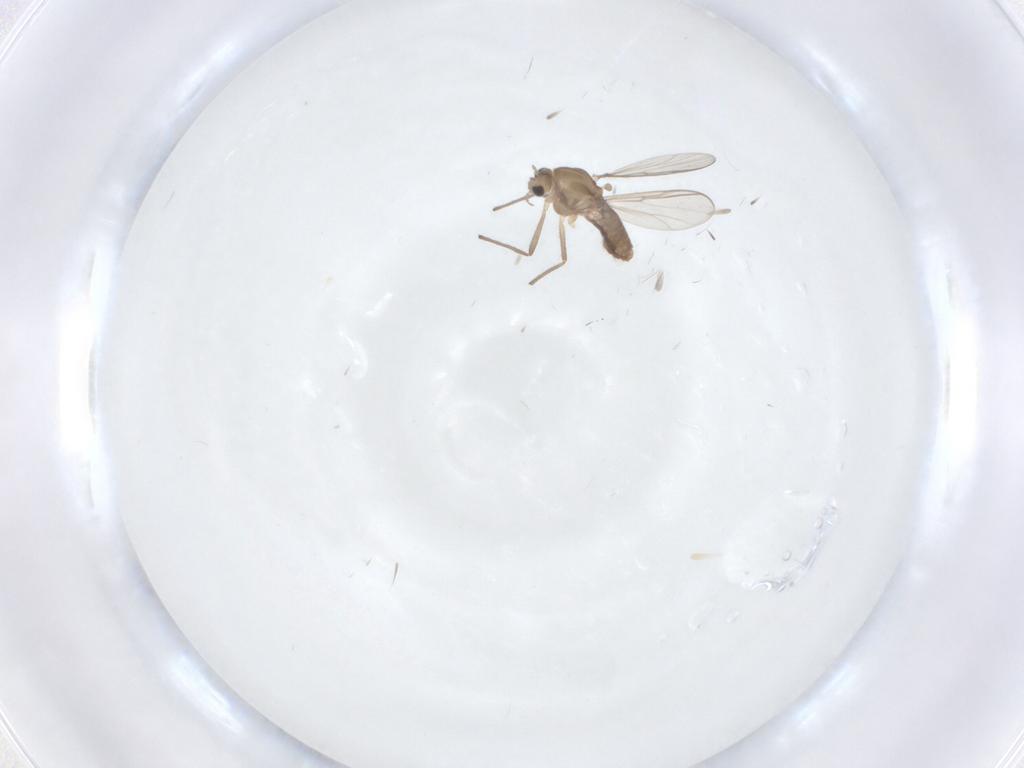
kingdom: Animalia
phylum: Arthropoda
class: Insecta
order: Diptera
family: Chironomidae
